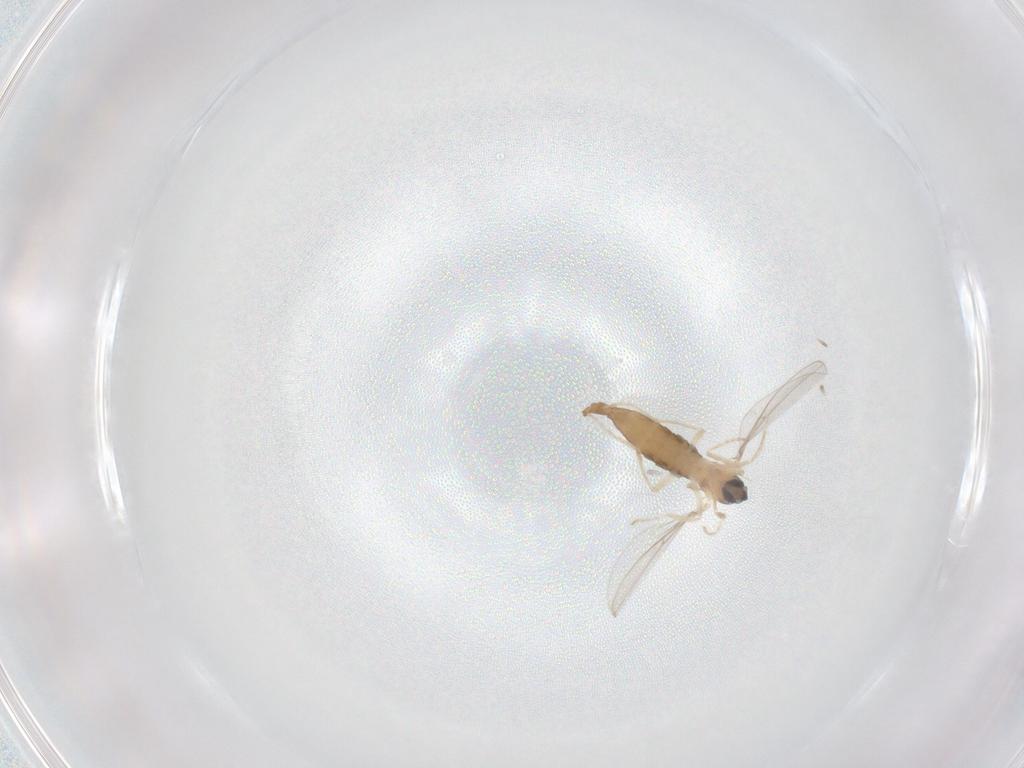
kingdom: Animalia
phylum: Arthropoda
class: Insecta
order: Diptera
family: Cecidomyiidae
